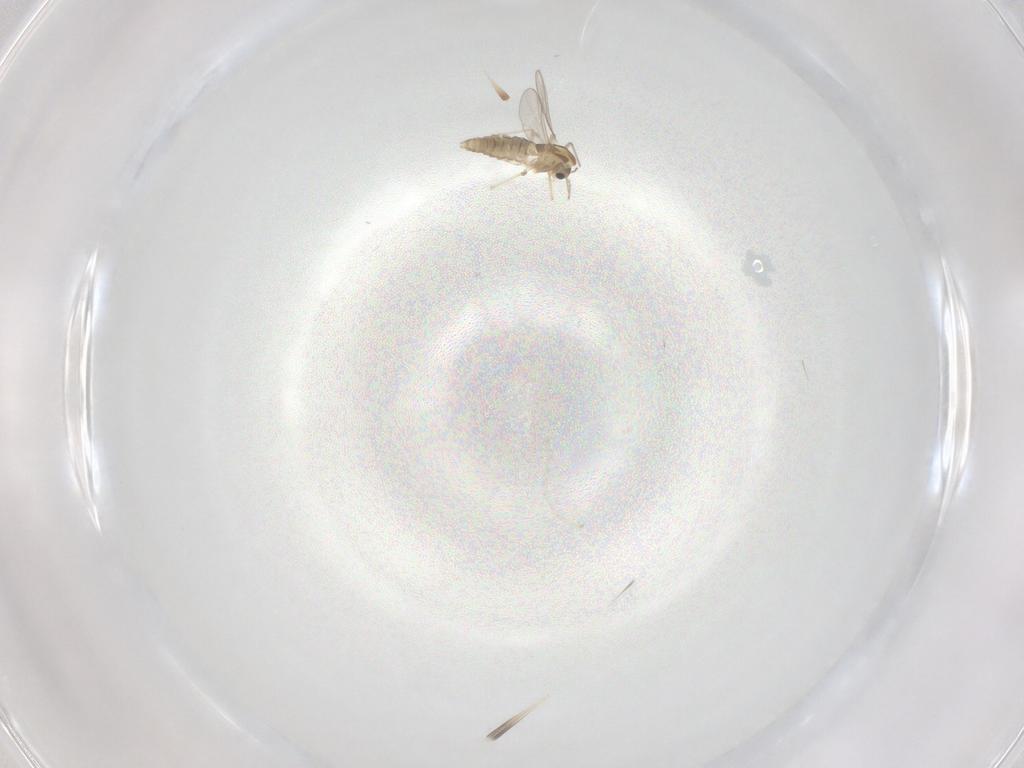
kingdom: Animalia
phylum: Arthropoda
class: Insecta
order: Diptera
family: Chironomidae
